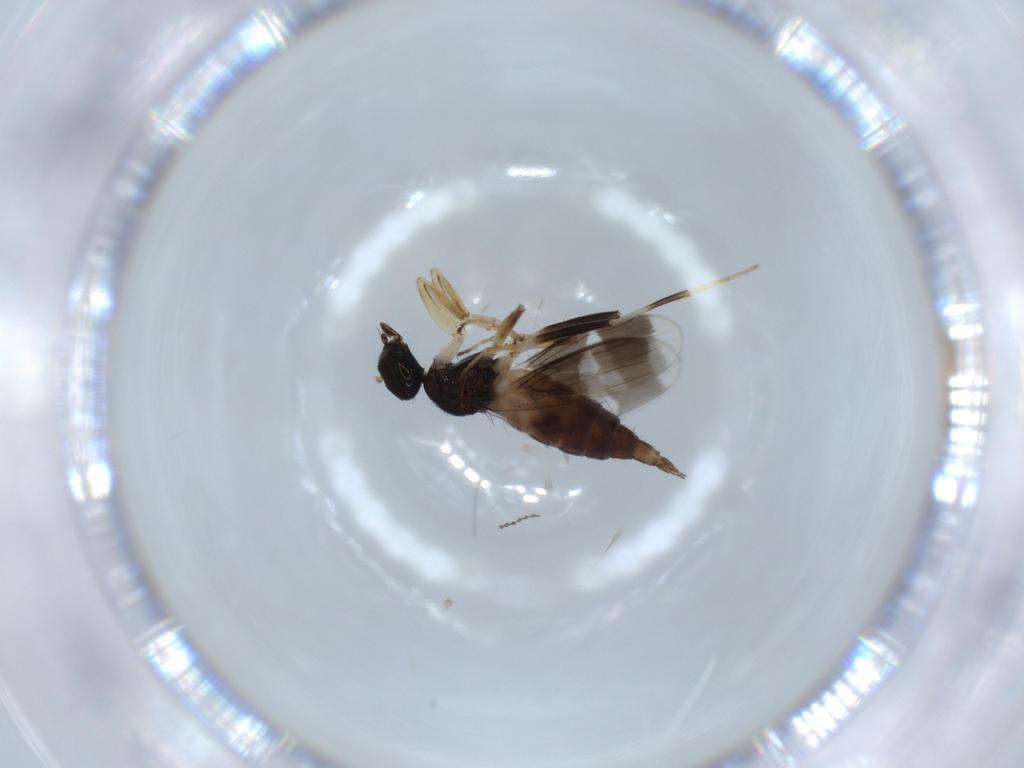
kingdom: Animalia
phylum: Arthropoda
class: Insecta
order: Diptera
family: Hybotidae
